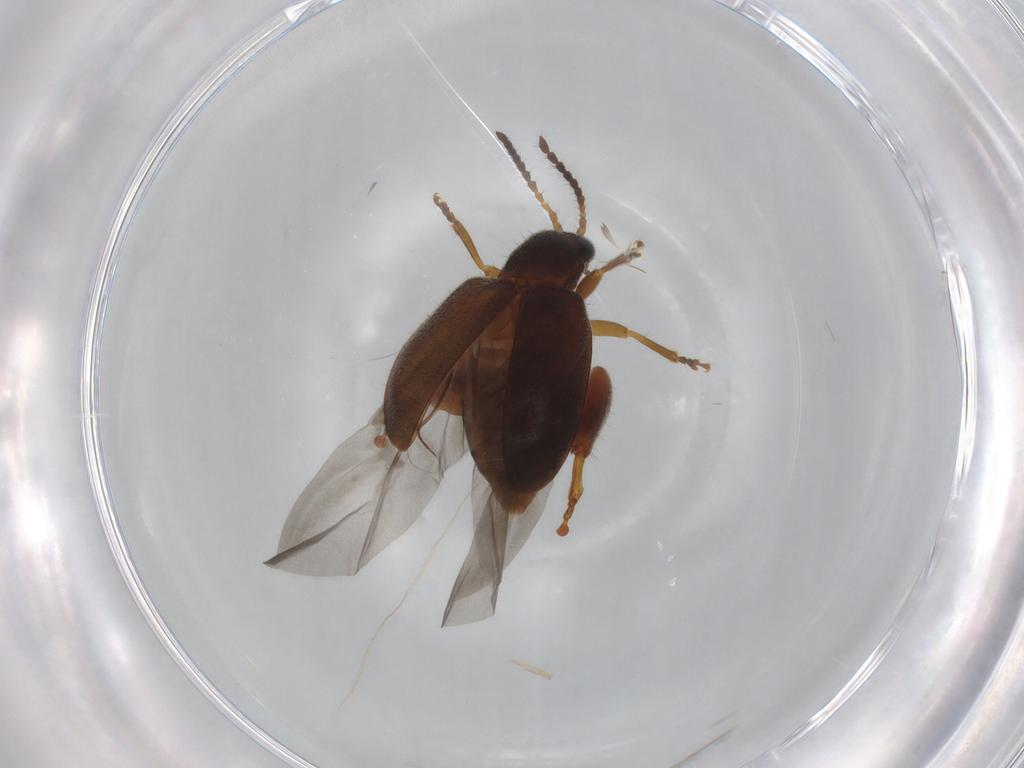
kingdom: Animalia
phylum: Arthropoda
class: Insecta
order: Coleoptera
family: Chrysomelidae
